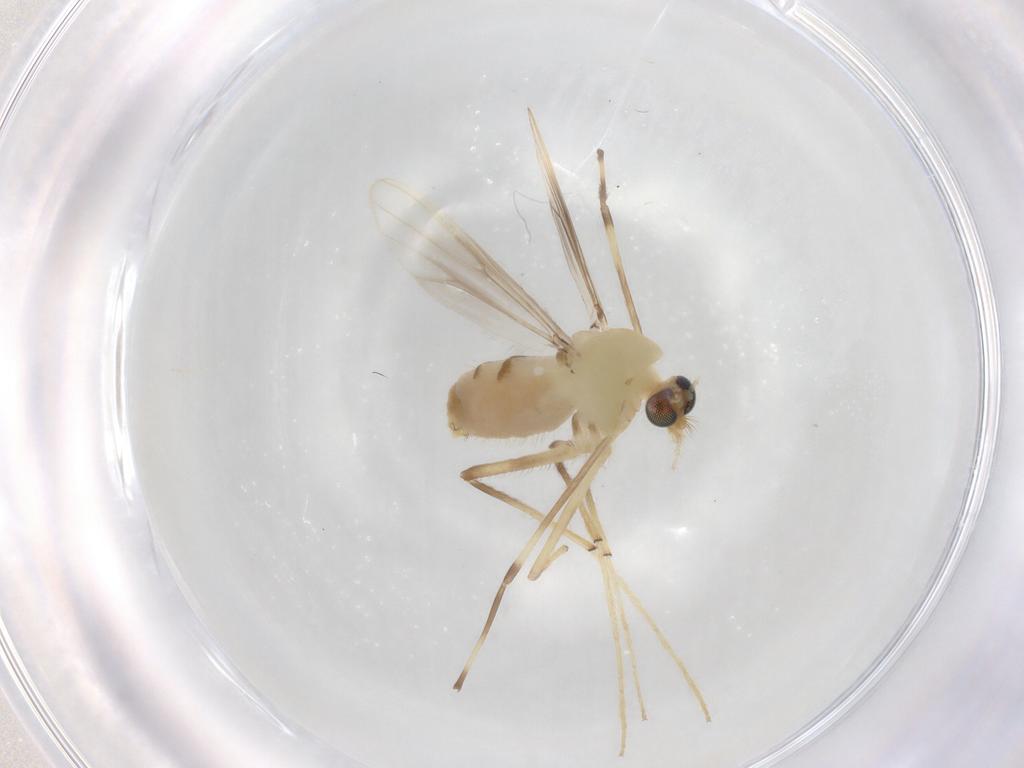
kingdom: Animalia
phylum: Arthropoda
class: Insecta
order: Diptera
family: Chironomidae
